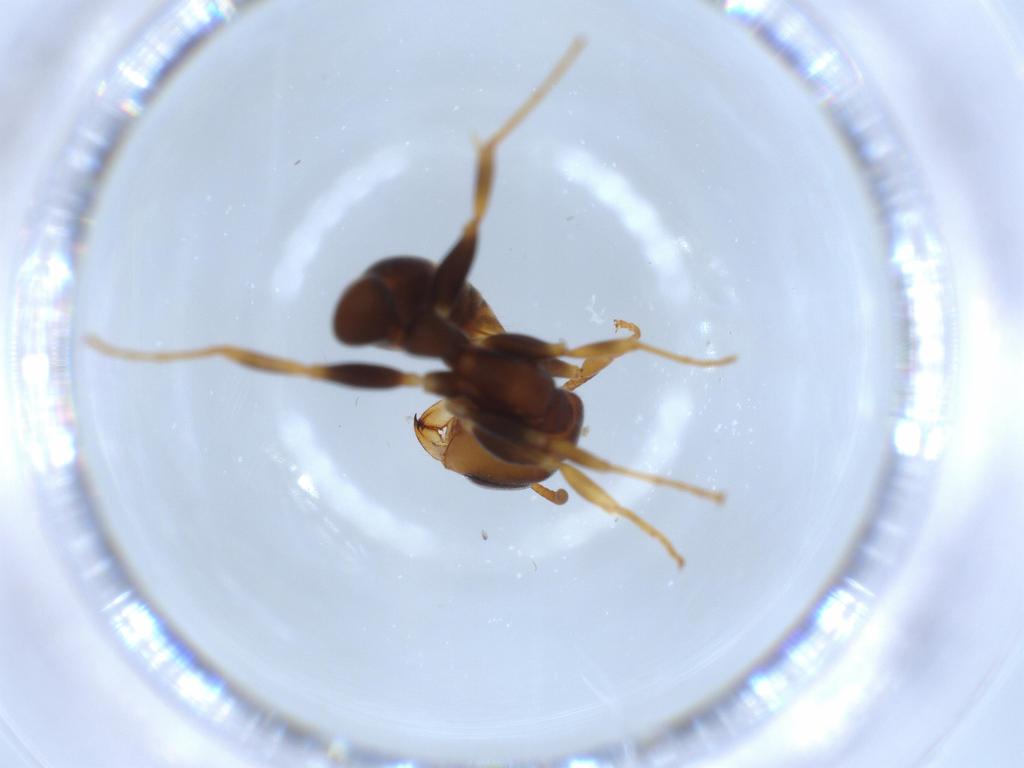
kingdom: Animalia
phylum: Arthropoda
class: Insecta
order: Hymenoptera
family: Formicidae
